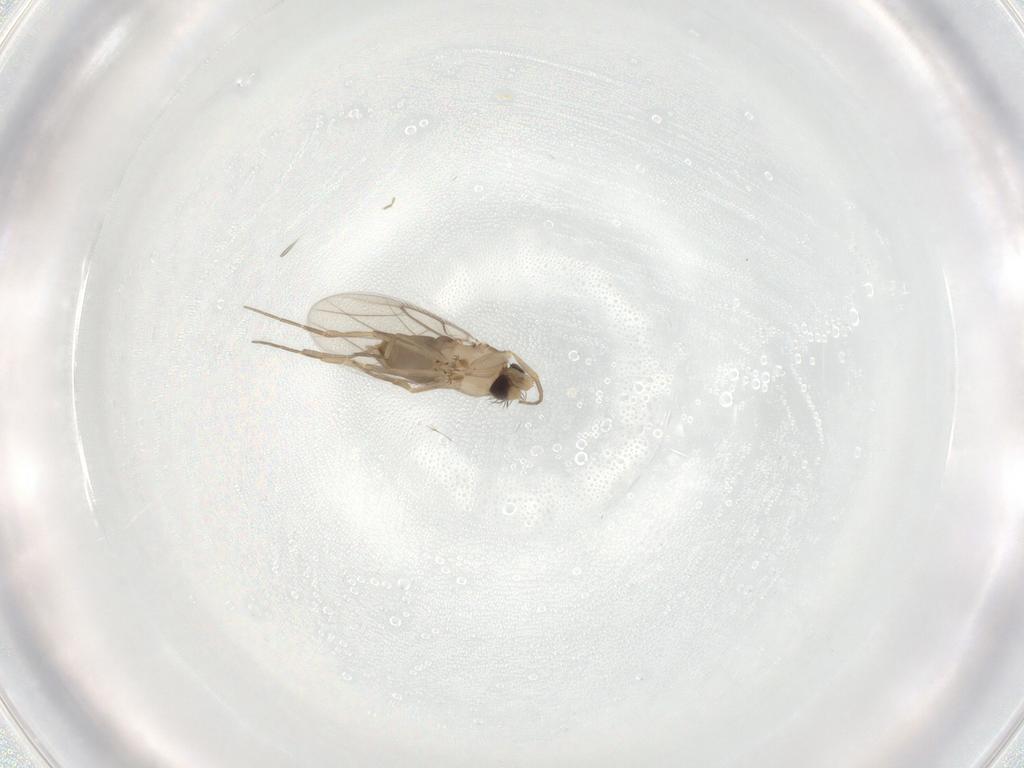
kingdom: Animalia
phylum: Arthropoda
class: Insecta
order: Diptera
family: Phoridae
